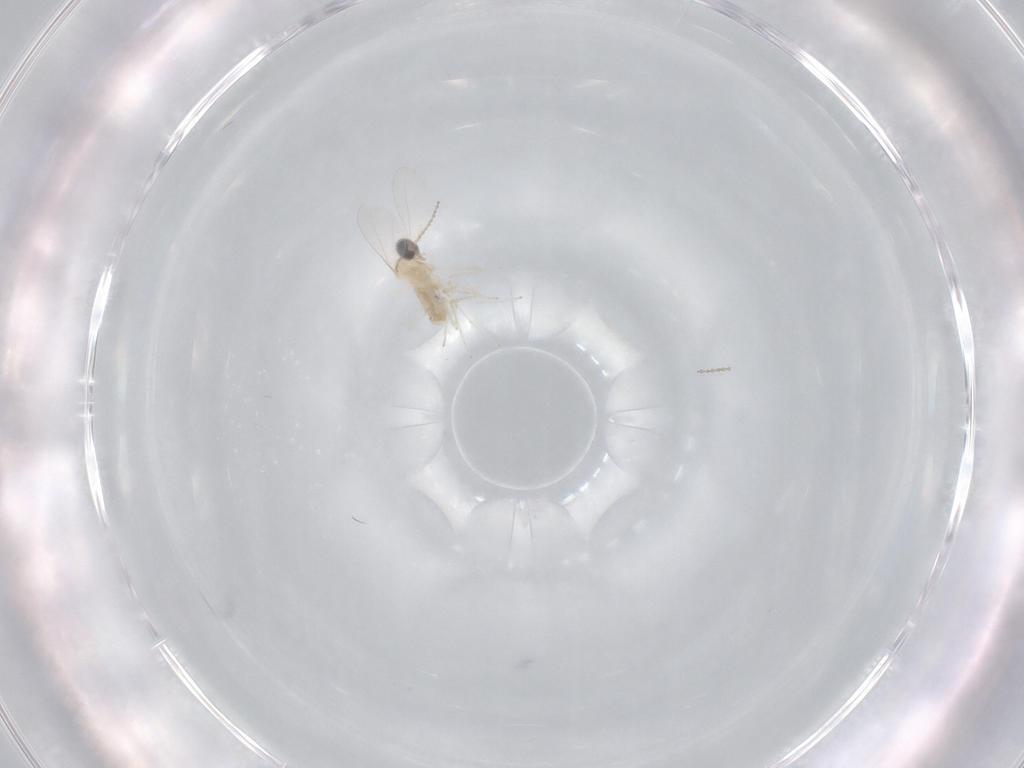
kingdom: Animalia
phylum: Arthropoda
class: Insecta
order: Diptera
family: Cecidomyiidae
